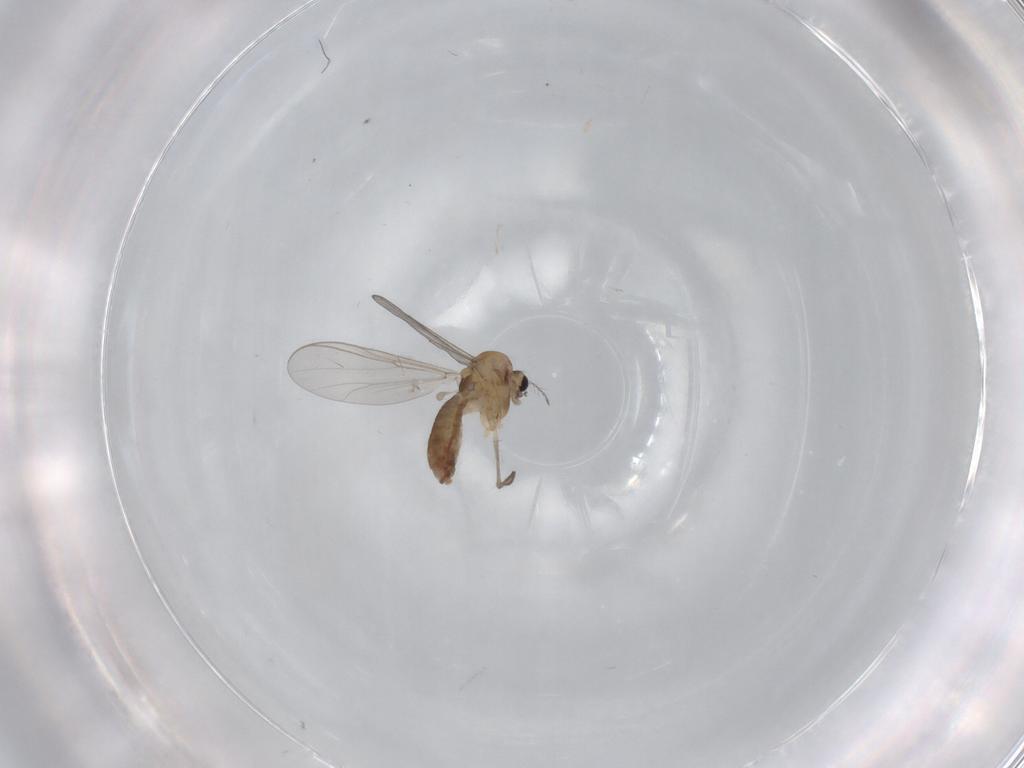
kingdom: Animalia
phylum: Arthropoda
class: Insecta
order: Diptera
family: Chironomidae
